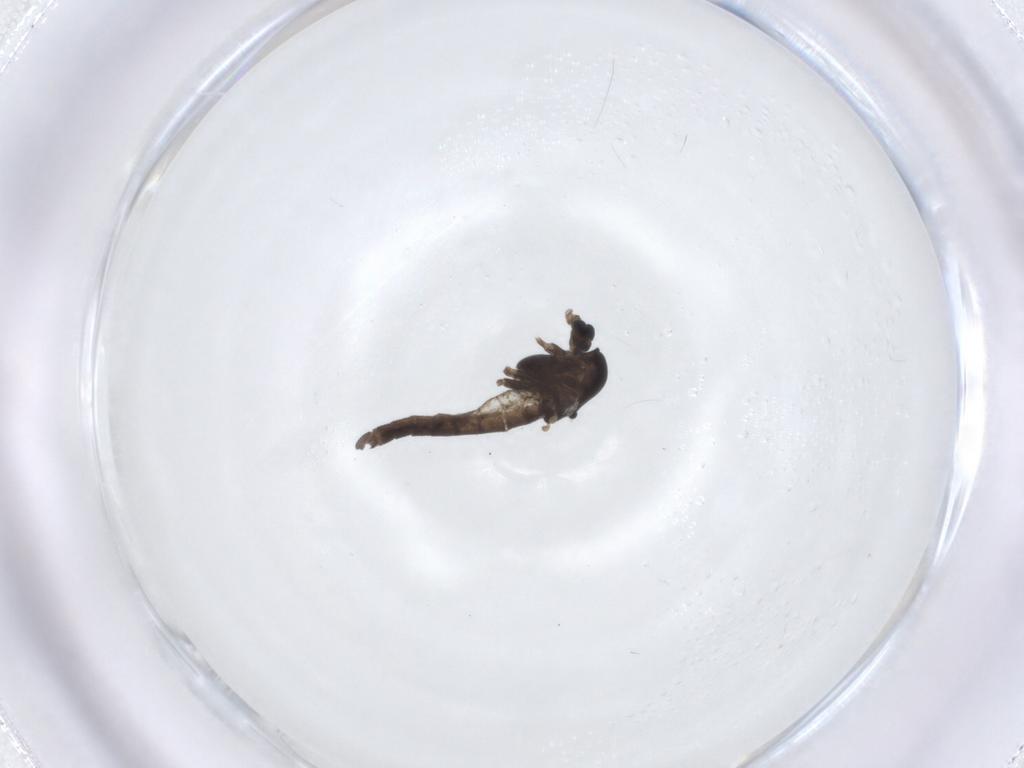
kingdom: Animalia
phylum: Arthropoda
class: Insecta
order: Diptera
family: Chironomidae
